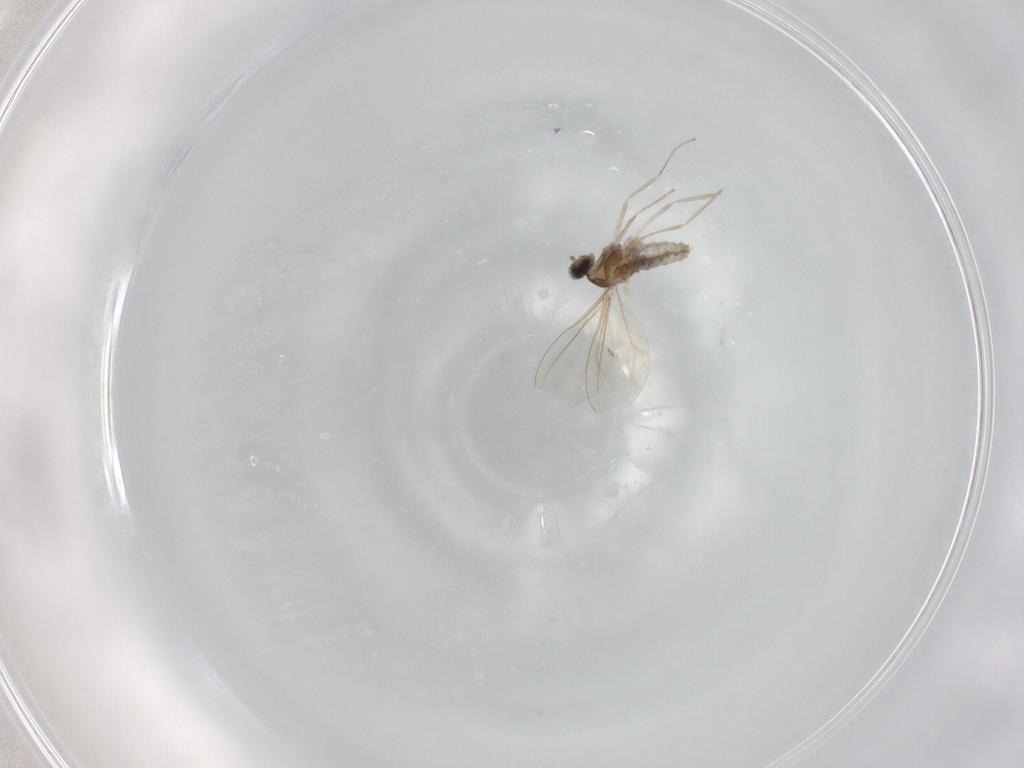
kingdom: Animalia
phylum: Arthropoda
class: Insecta
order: Diptera
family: Cecidomyiidae
